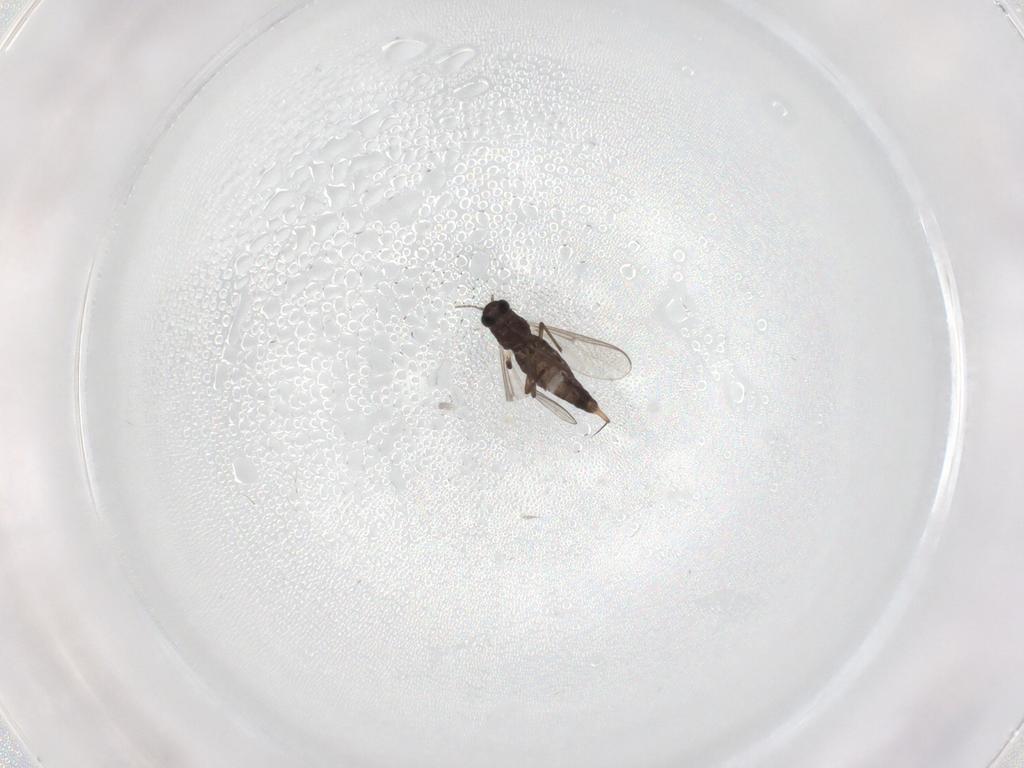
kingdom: Animalia
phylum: Arthropoda
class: Insecta
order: Diptera
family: Chironomidae
